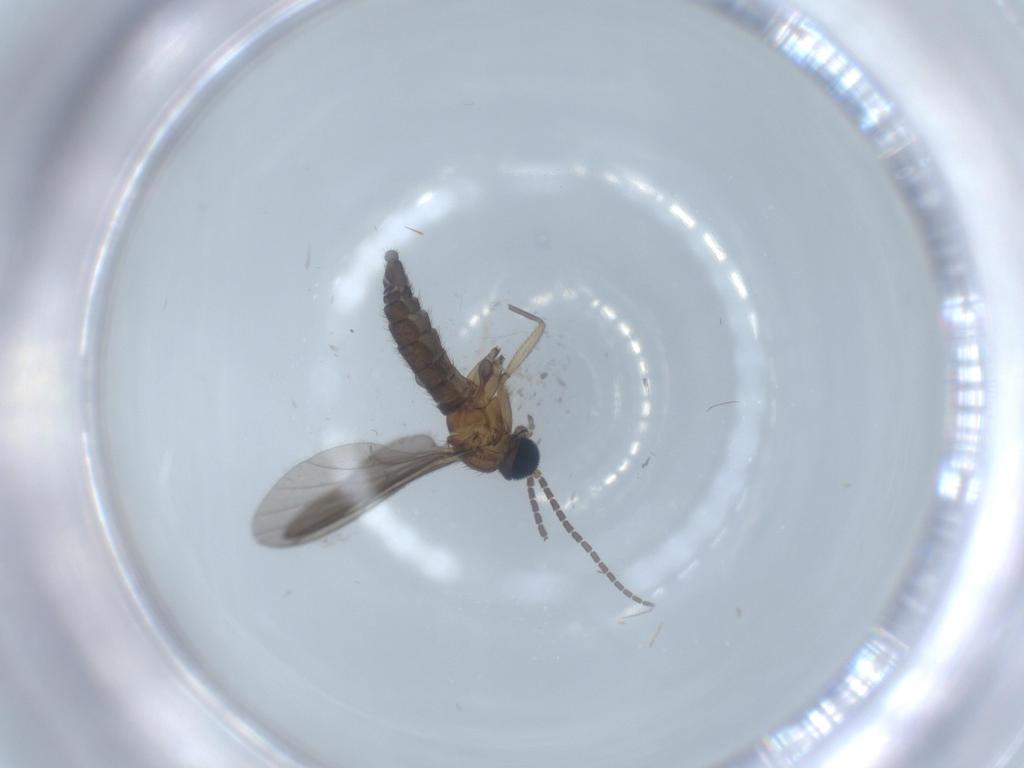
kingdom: Animalia
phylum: Arthropoda
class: Insecta
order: Diptera
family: Sciaridae
